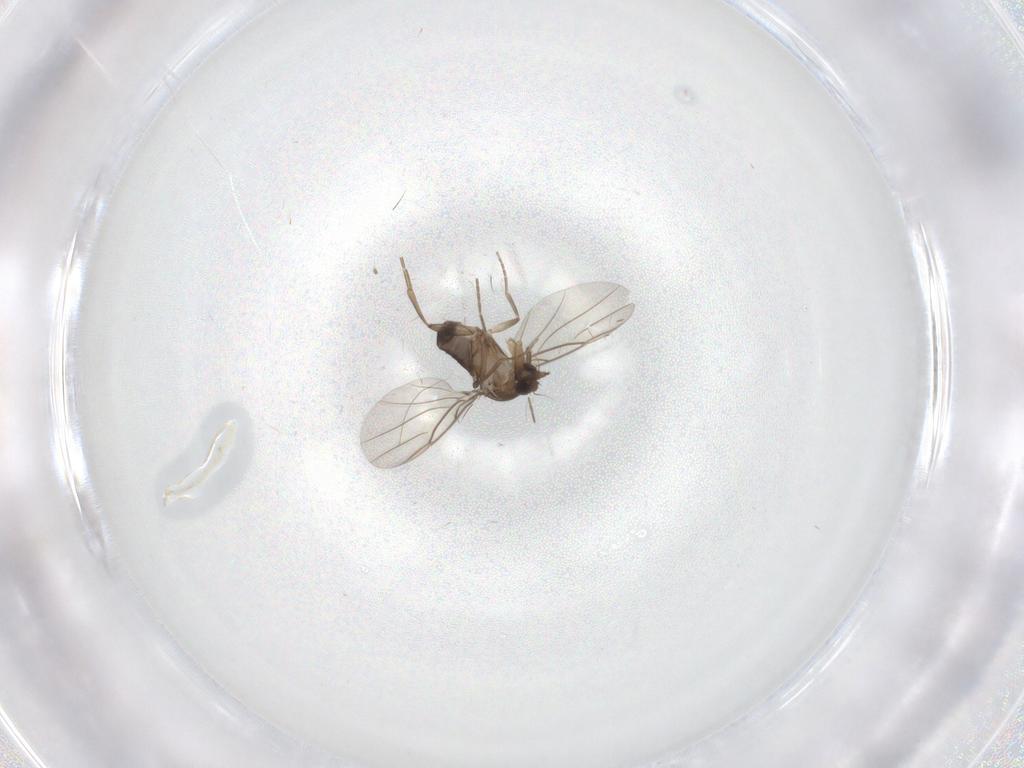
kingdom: Animalia
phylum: Arthropoda
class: Insecta
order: Diptera
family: Phoridae
